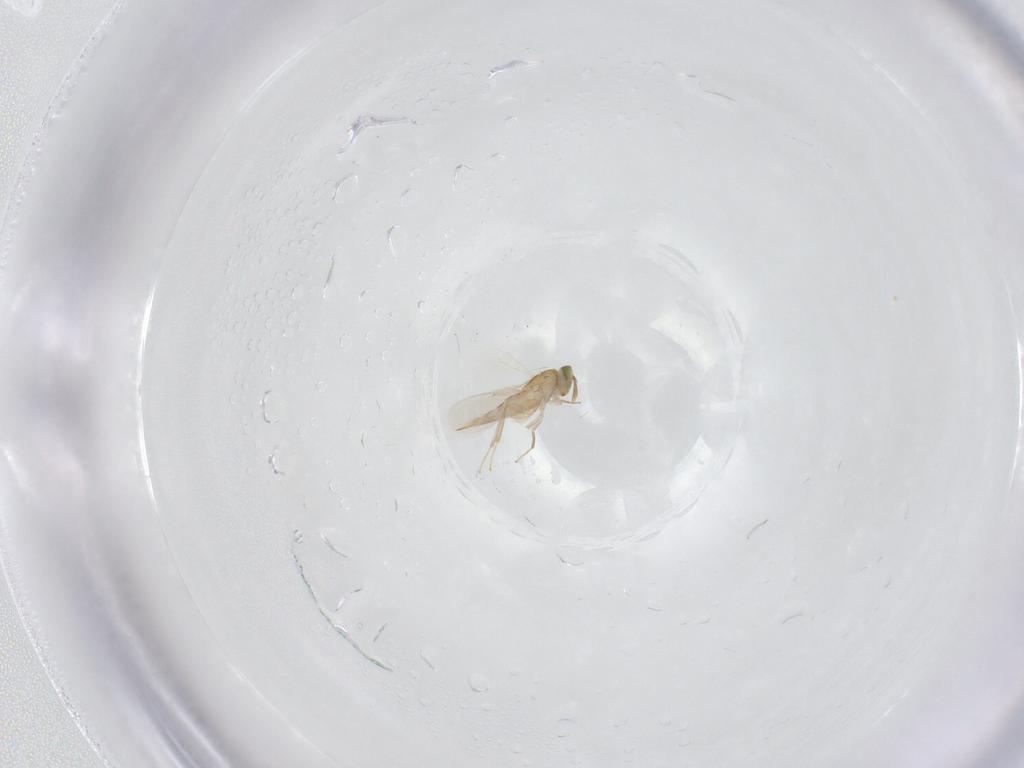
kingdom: Animalia
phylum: Arthropoda
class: Insecta
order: Hymenoptera
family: Aphelinidae
